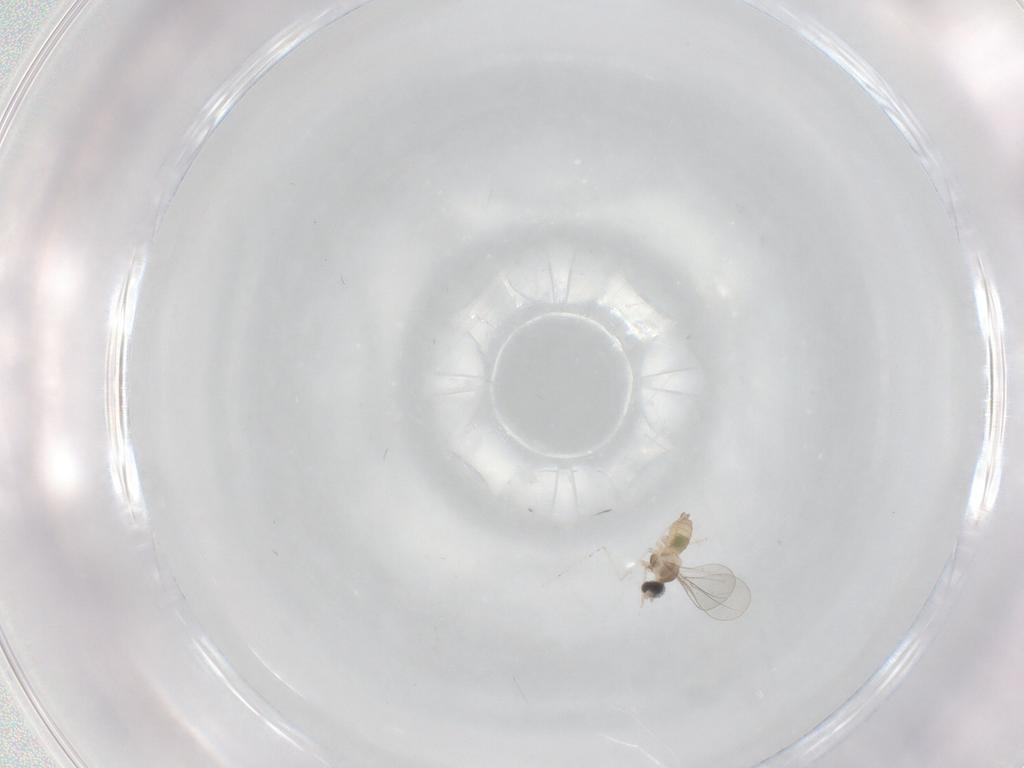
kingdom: Animalia
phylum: Arthropoda
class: Insecta
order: Diptera
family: Cecidomyiidae
